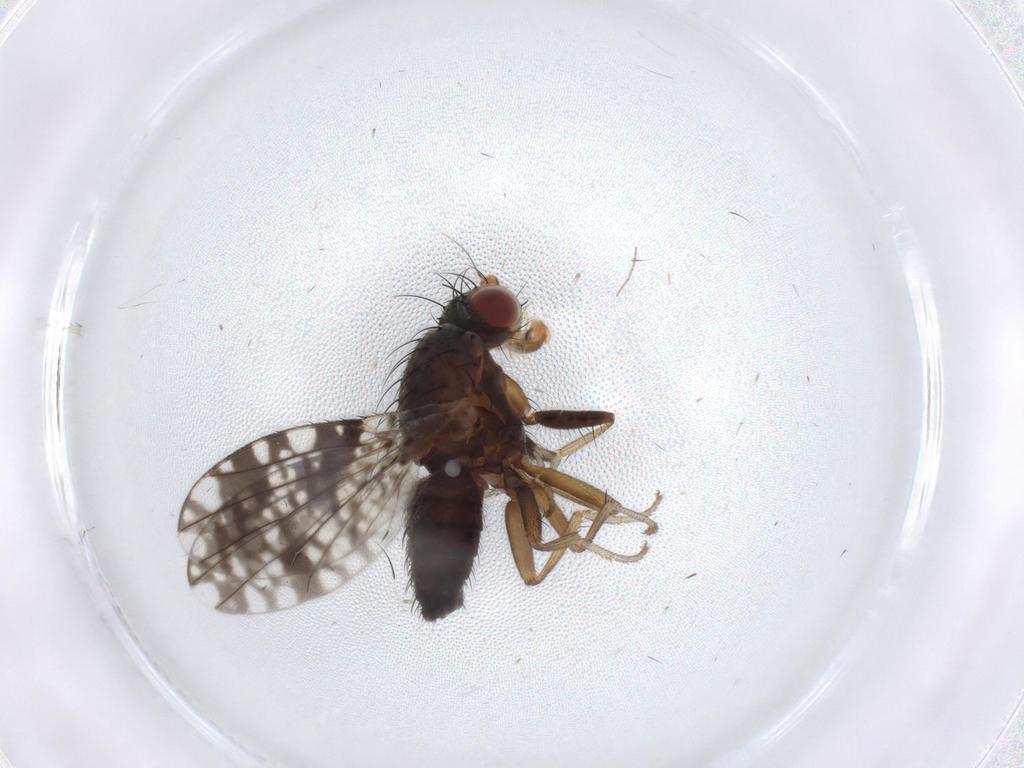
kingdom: Animalia
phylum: Arthropoda
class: Insecta
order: Diptera
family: Tephritidae
